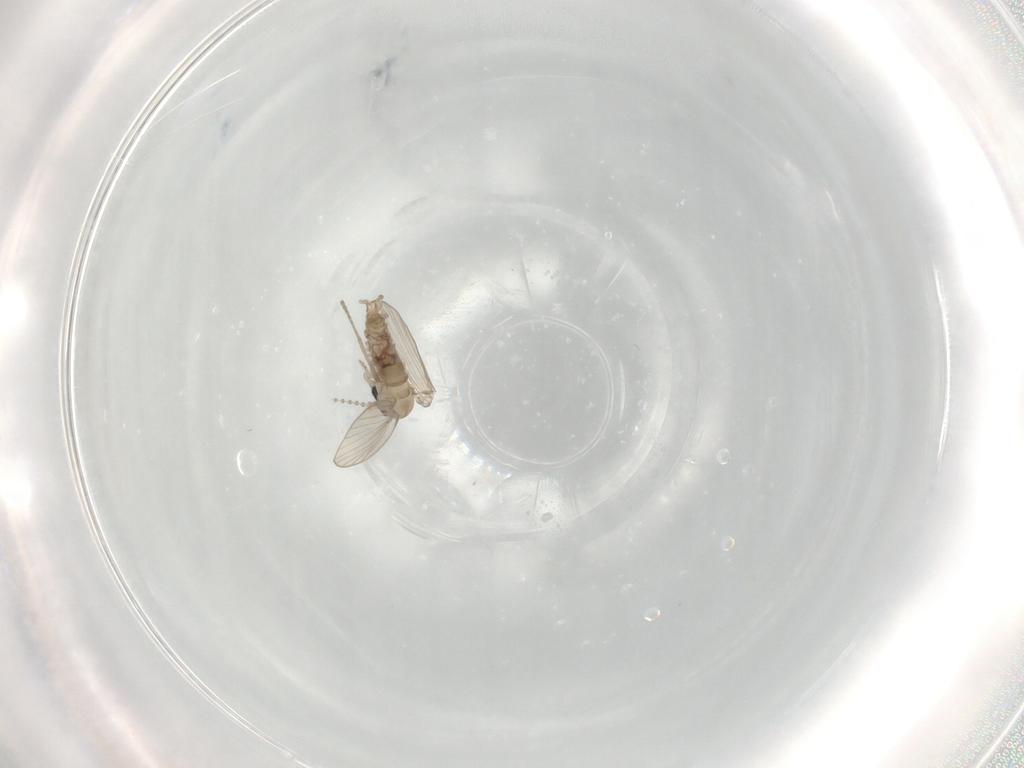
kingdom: Animalia
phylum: Arthropoda
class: Insecta
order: Diptera
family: Psychodidae
